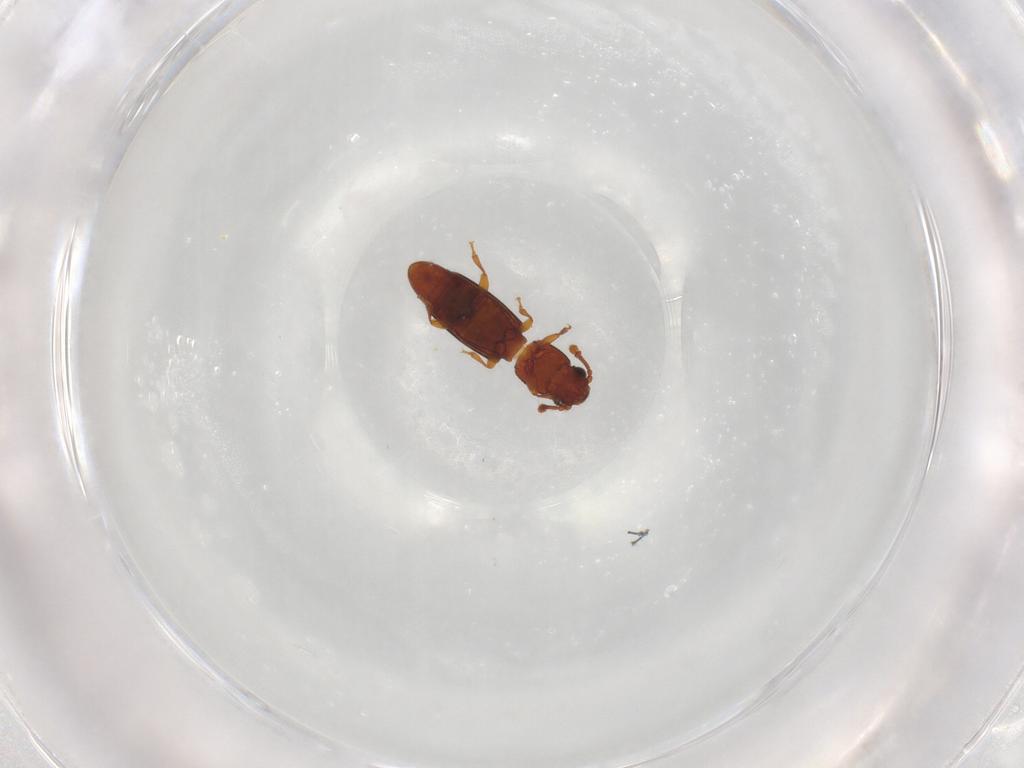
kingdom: Animalia
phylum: Arthropoda
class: Insecta
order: Coleoptera
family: Monotomidae
